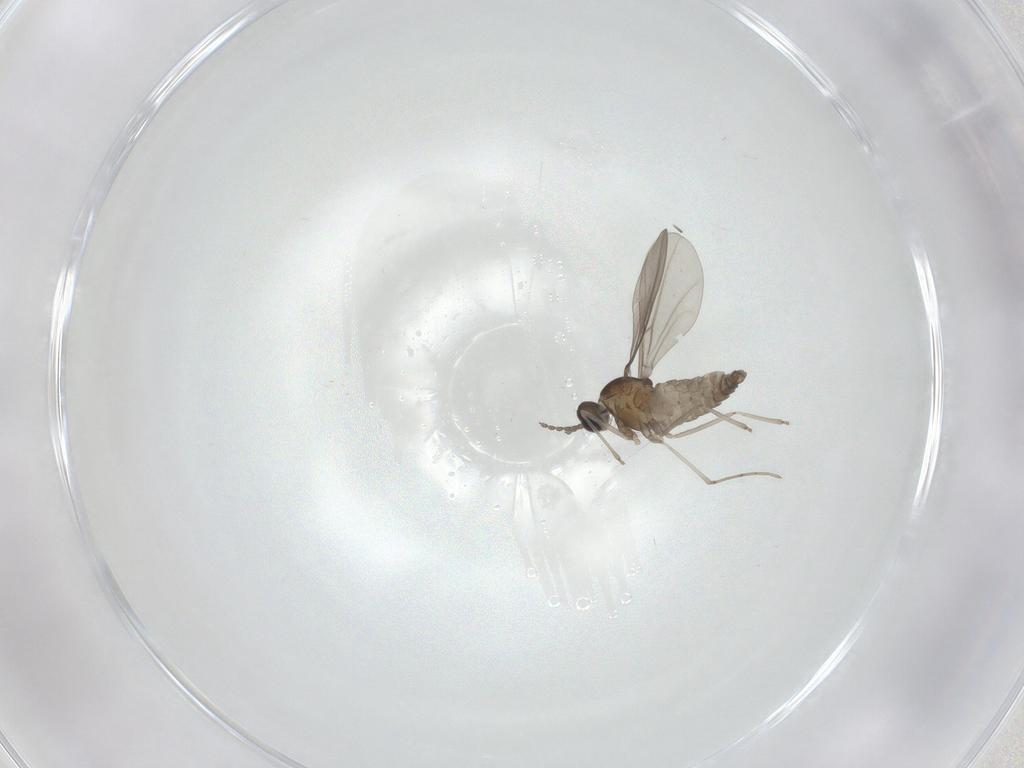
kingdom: Animalia
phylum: Arthropoda
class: Insecta
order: Diptera
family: Cecidomyiidae
